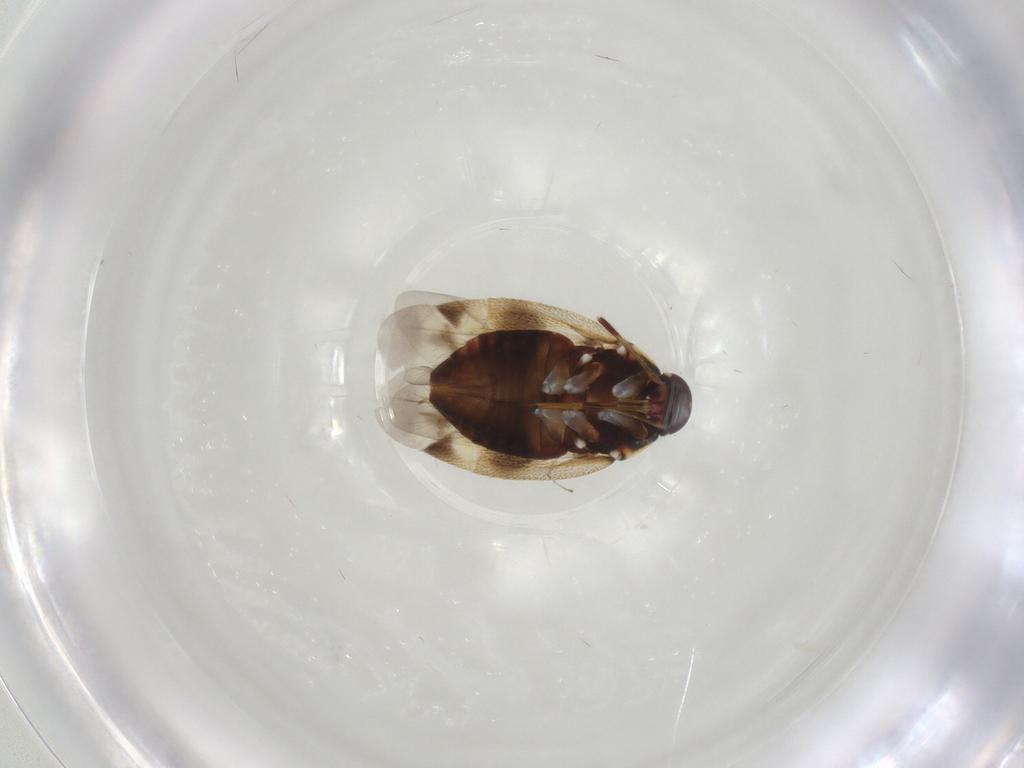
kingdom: Animalia
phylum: Arthropoda
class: Insecta
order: Hemiptera
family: Miridae
